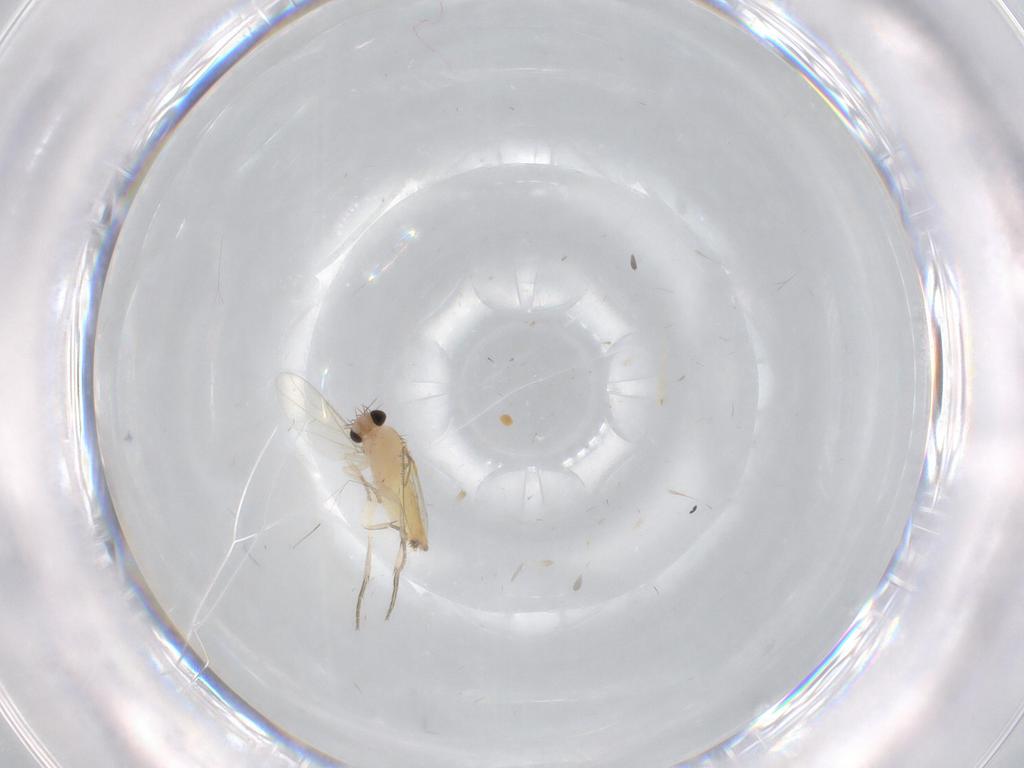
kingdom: Animalia
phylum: Arthropoda
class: Insecta
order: Diptera
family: Phoridae
